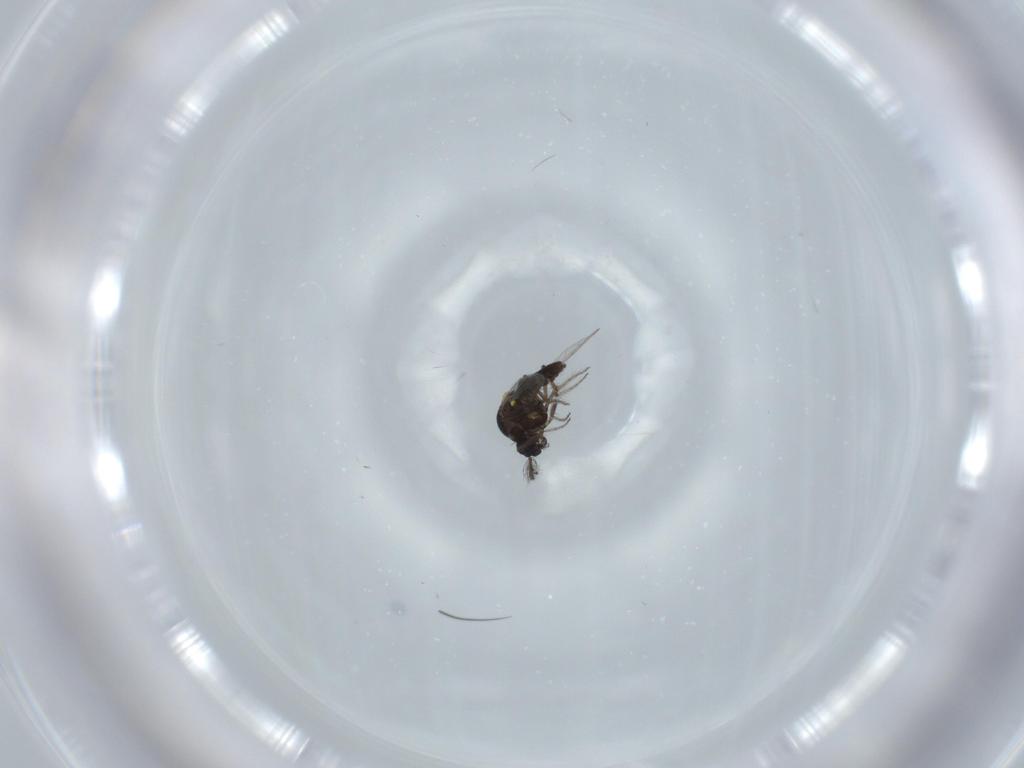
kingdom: Animalia
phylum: Arthropoda
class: Insecta
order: Diptera
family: Ceratopogonidae
